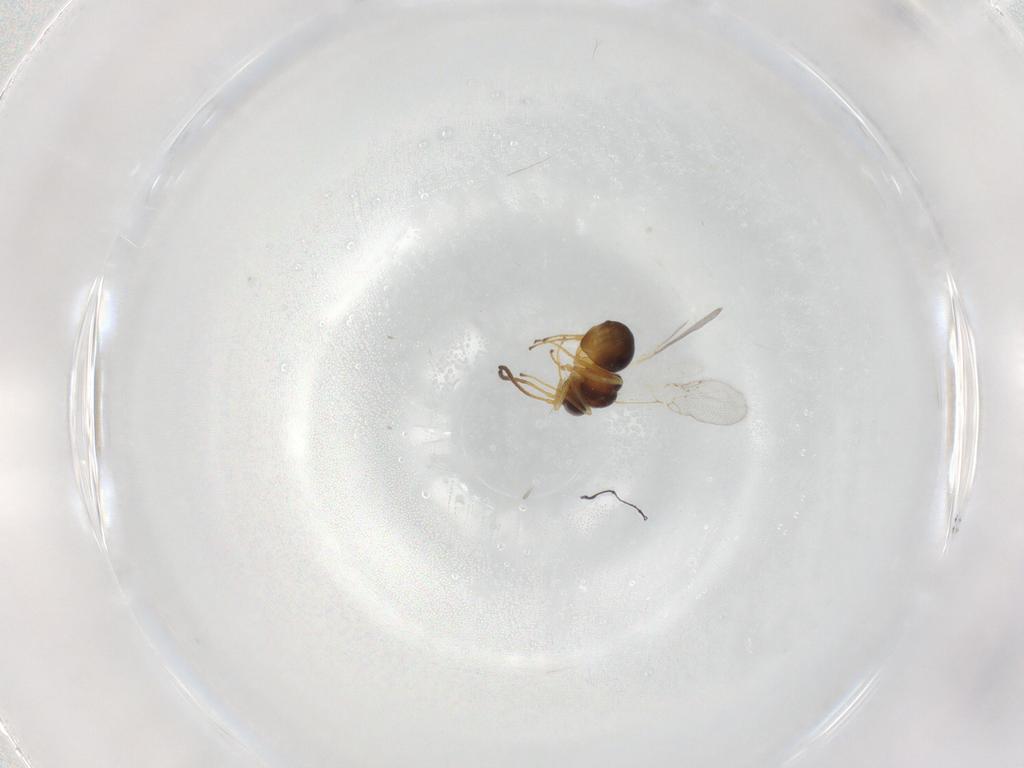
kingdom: Animalia
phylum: Arthropoda
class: Insecta
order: Hymenoptera
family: Figitidae
